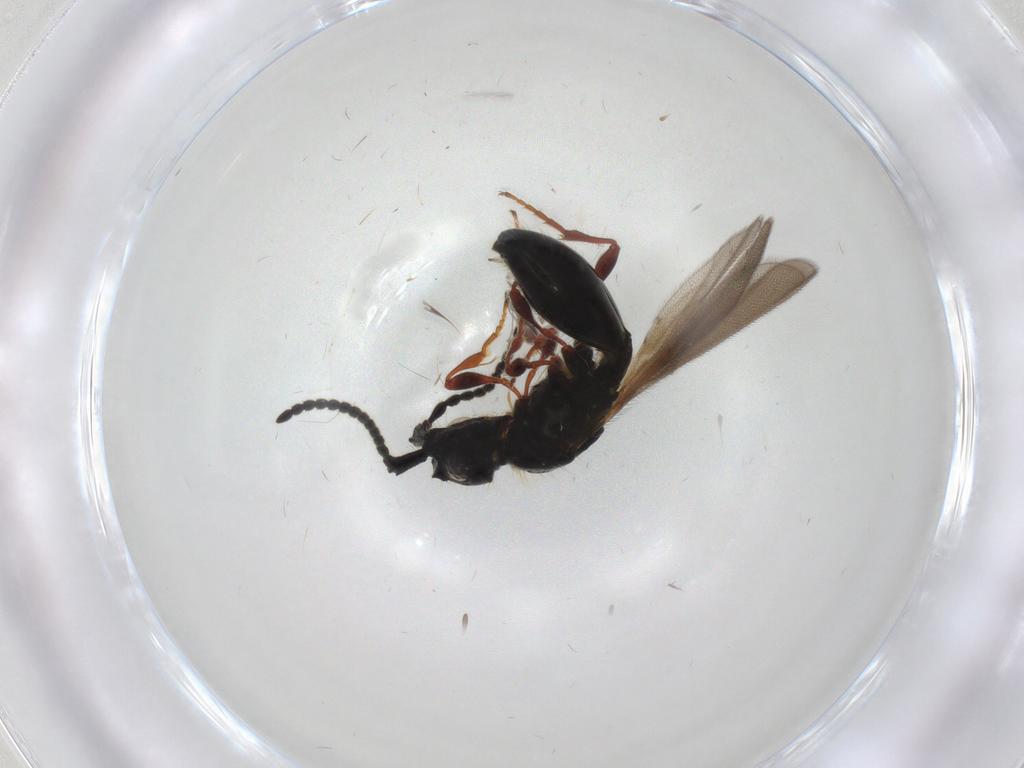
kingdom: Animalia
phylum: Arthropoda
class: Insecta
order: Hymenoptera
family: Diapriidae
